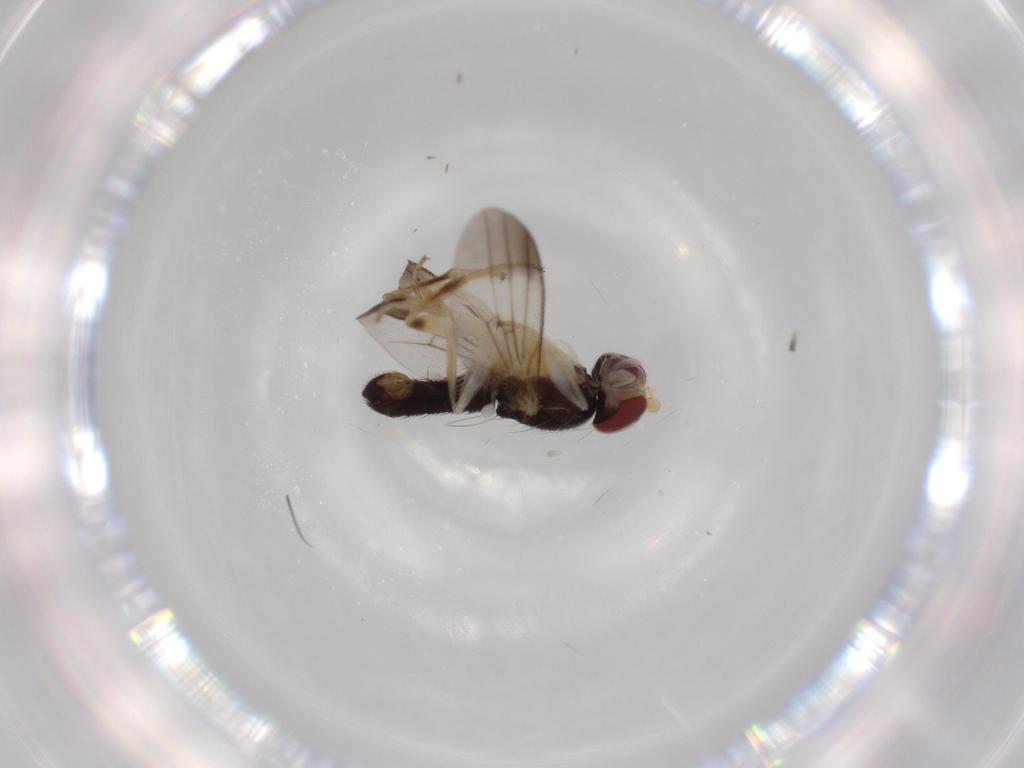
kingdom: Animalia
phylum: Arthropoda
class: Insecta
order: Diptera
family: Clusiidae
